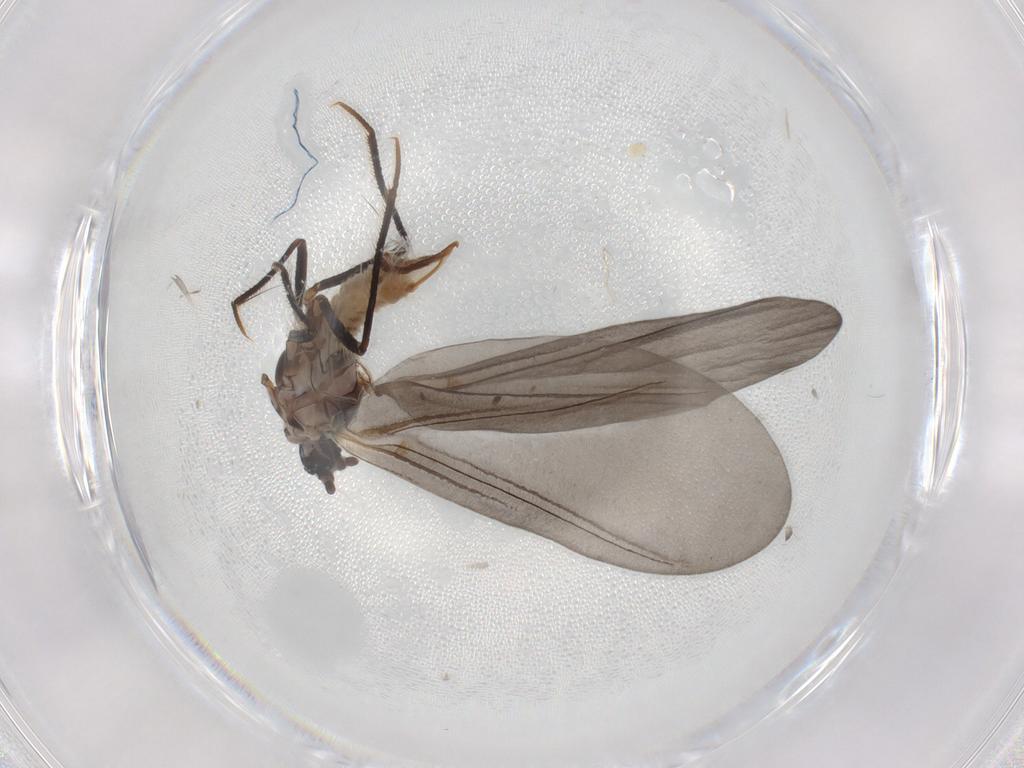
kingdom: Animalia
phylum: Arthropoda
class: Insecta
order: Hemiptera
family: Putoidae
